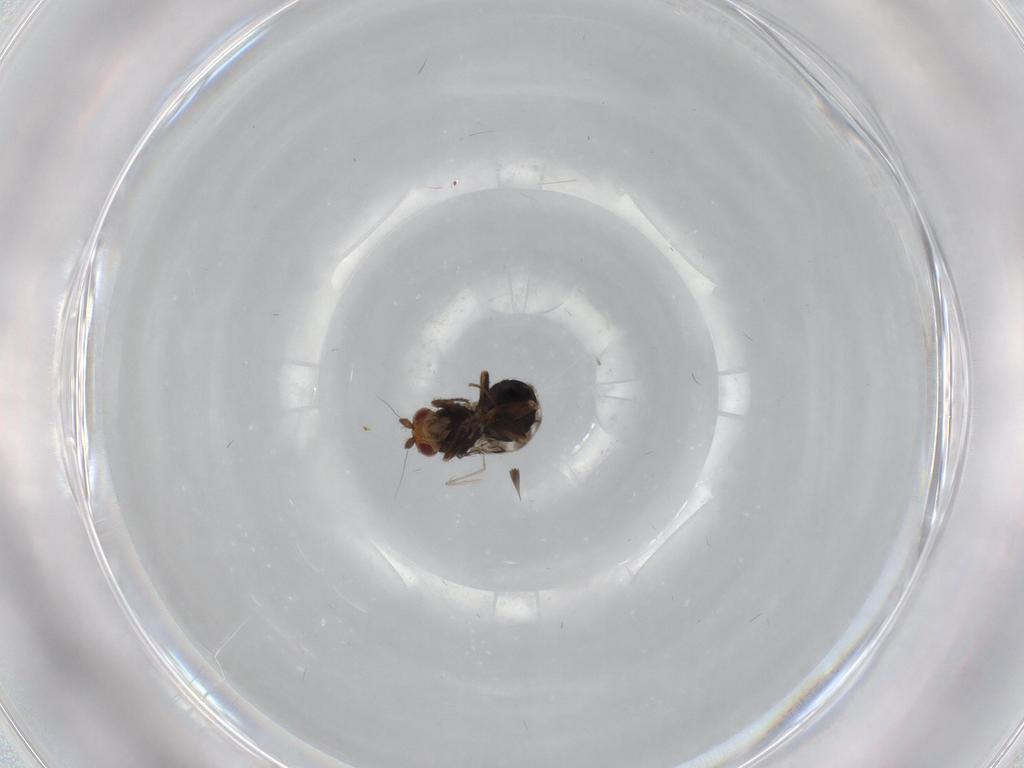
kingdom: Animalia
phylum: Arthropoda
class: Insecta
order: Diptera
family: Sphaeroceridae
